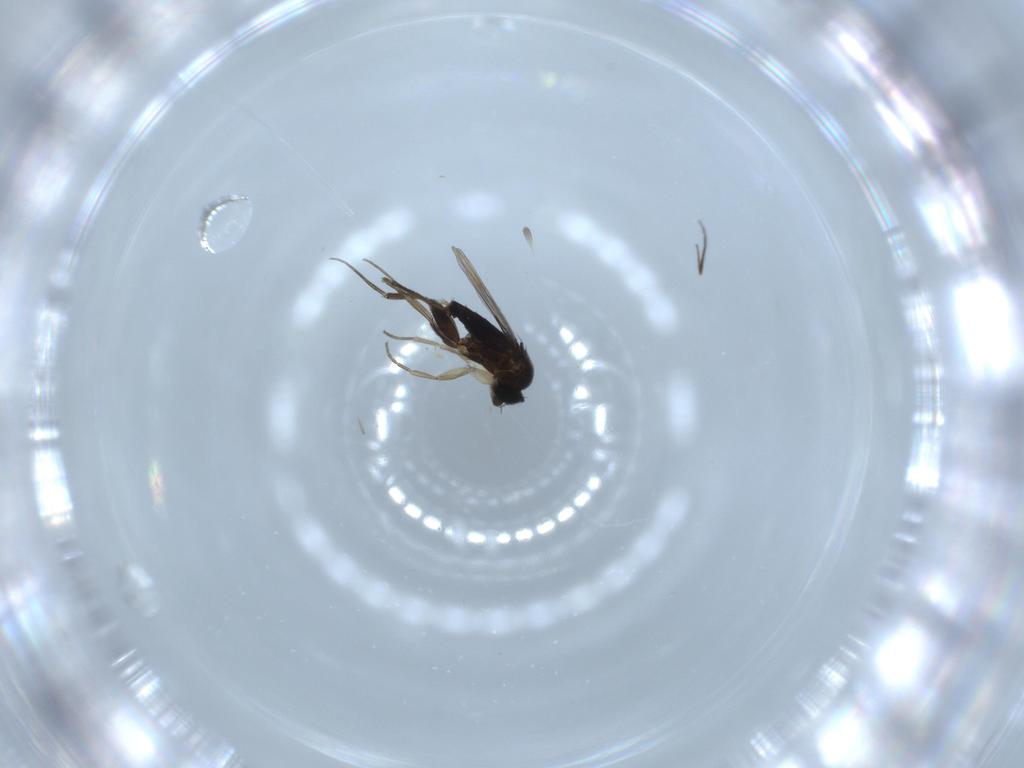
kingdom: Animalia
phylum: Arthropoda
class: Insecta
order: Diptera
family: Phoridae
